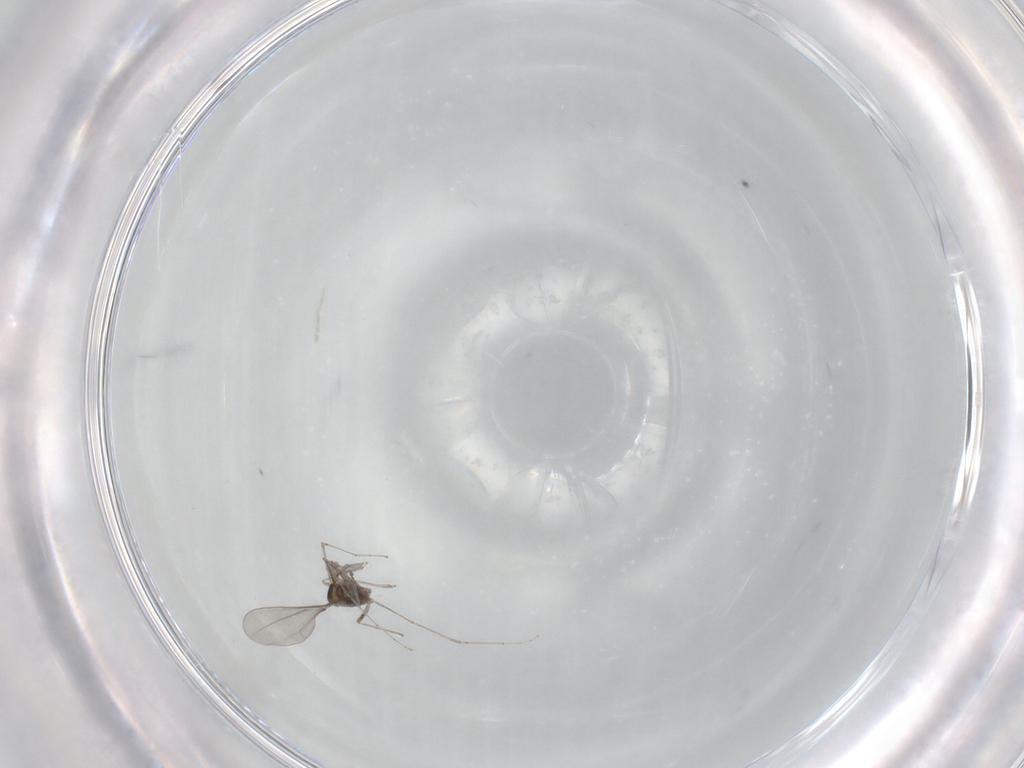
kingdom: Animalia
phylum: Arthropoda
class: Insecta
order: Diptera
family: Cecidomyiidae
